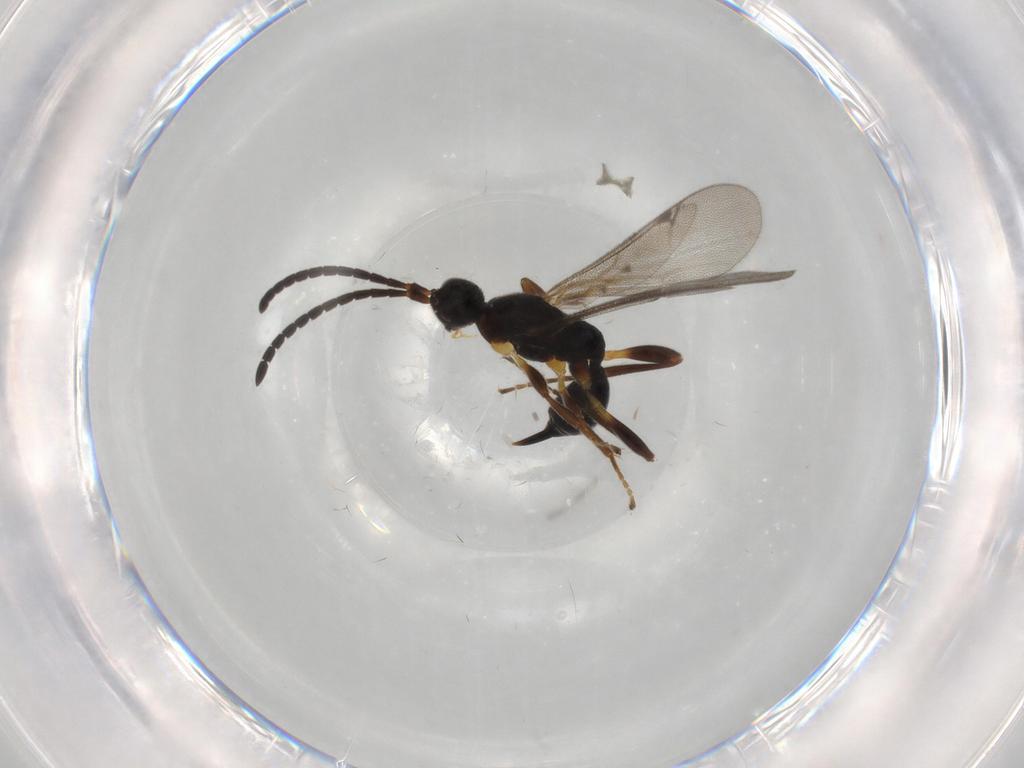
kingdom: Animalia
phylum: Arthropoda
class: Insecta
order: Hymenoptera
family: Proctotrupidae
